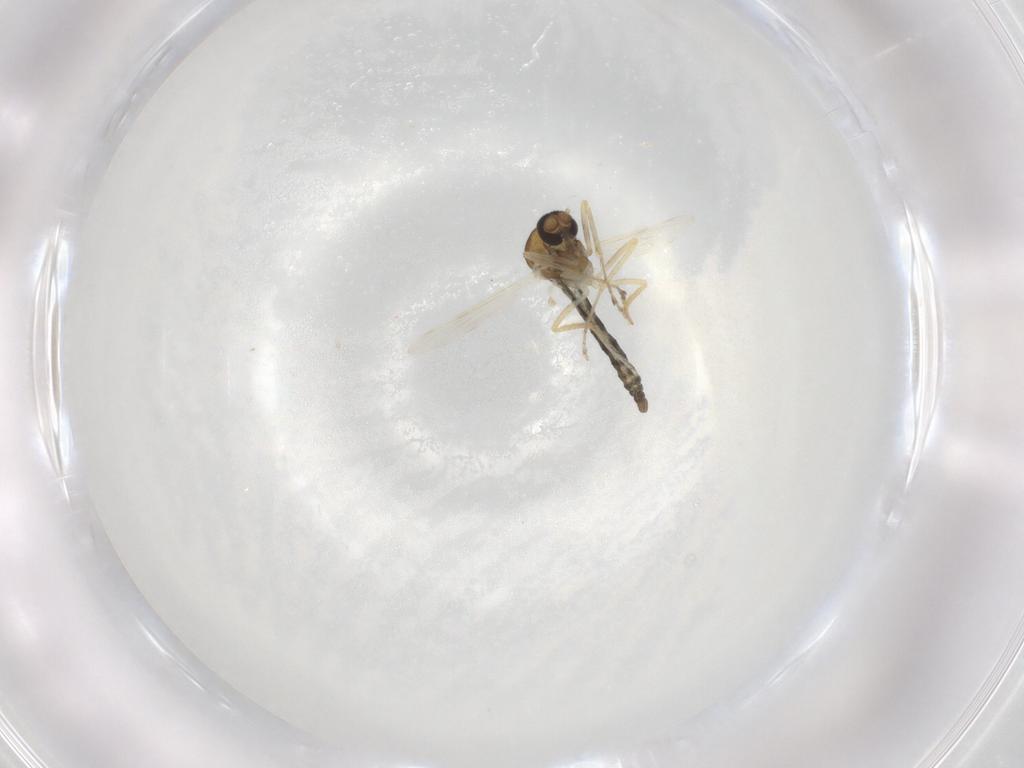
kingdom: Animalia
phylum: Arthropoda
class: Insecta
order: Diptera
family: Ceratopogonidae
